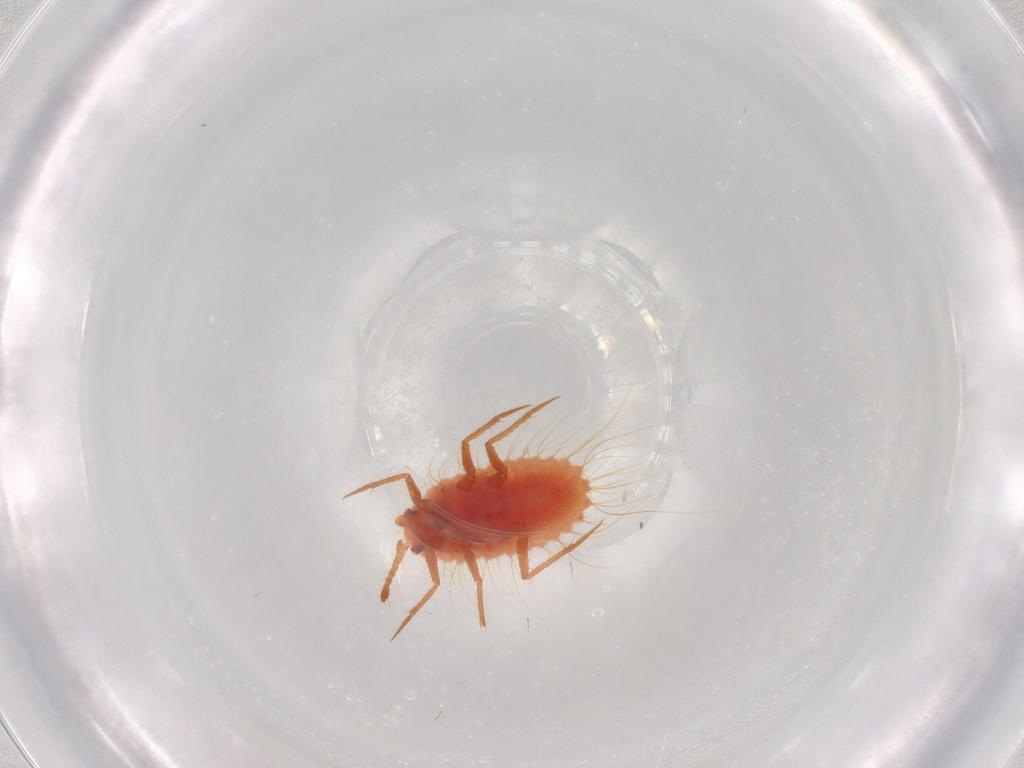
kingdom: Animalia
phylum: Arthropoda
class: Insecta
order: Hemiptera
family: Monophlebidae
